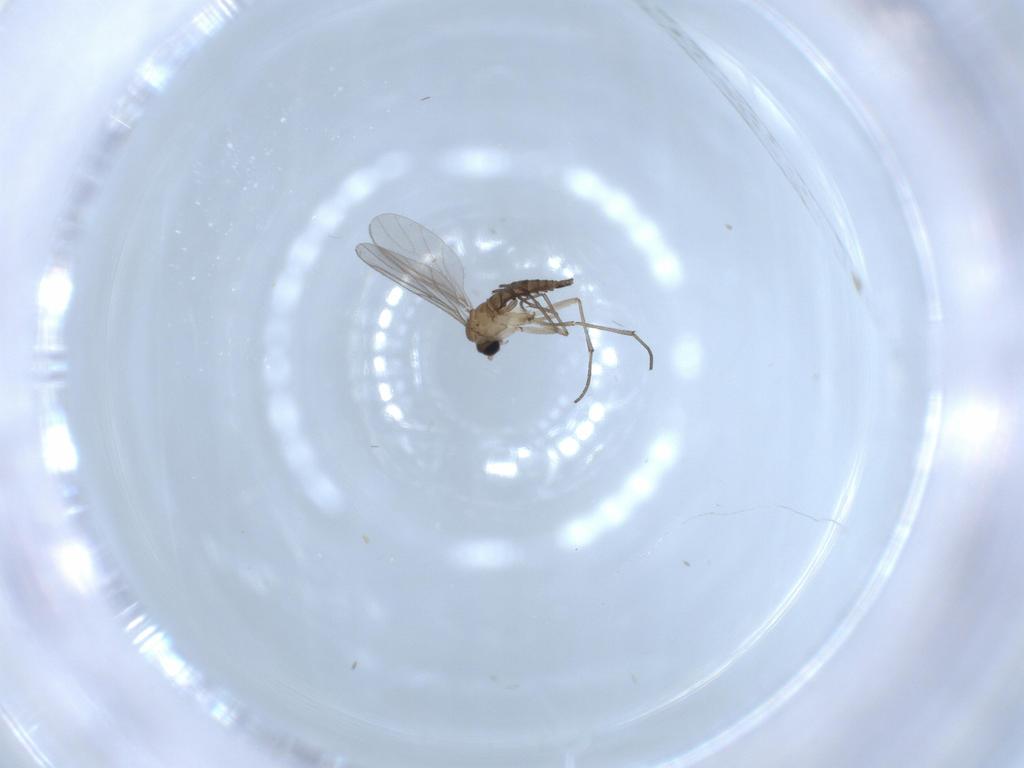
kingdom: Animalia
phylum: Arthropoda
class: Insecta
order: Diptera
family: Sciaridae
